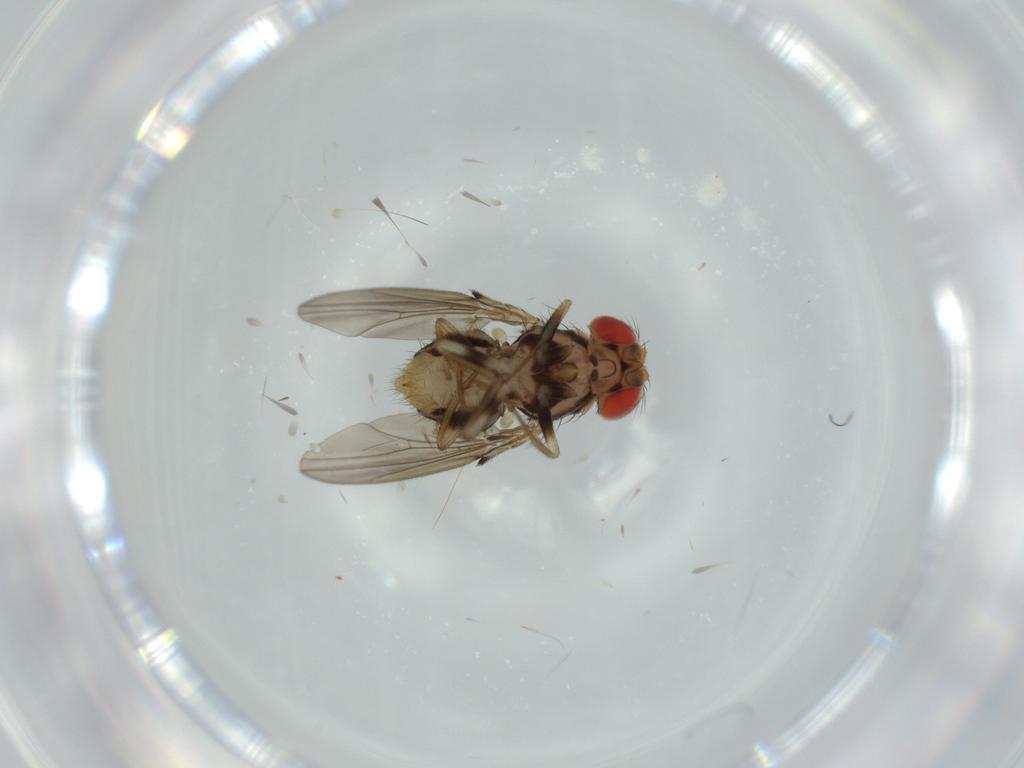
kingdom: Animalia
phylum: Arthropoda
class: Insecta
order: Diptera
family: Drosophilidae
